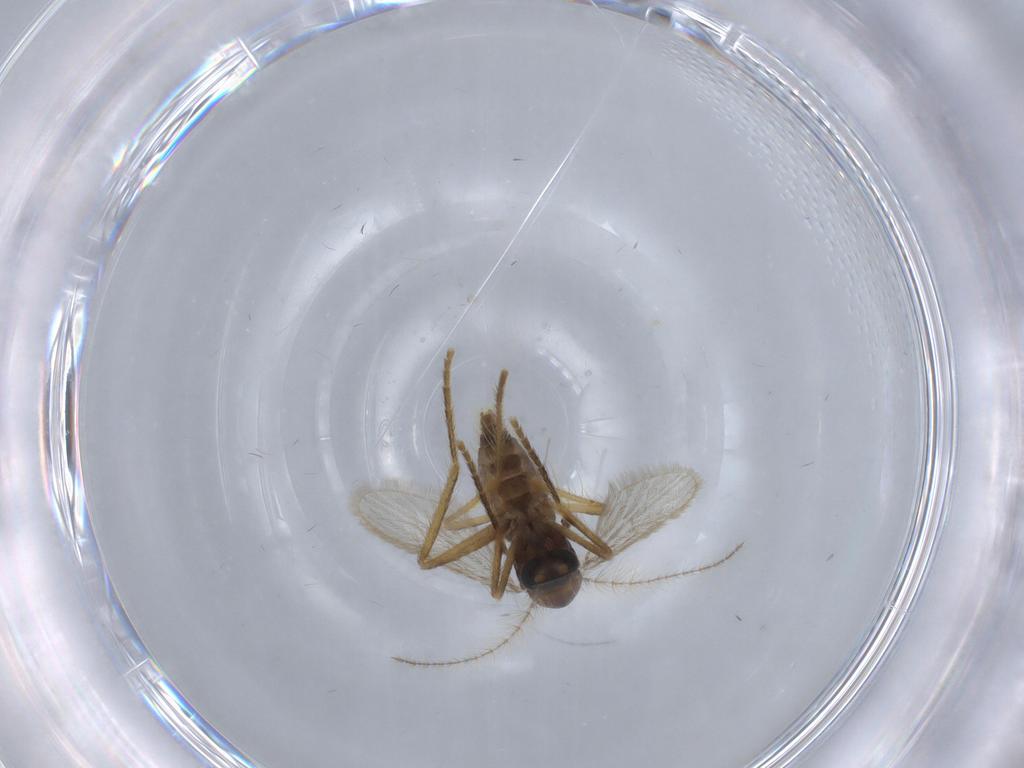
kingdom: Animalia
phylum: Arthropoda
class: Insecta
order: Diptera
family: Corethrellidae
